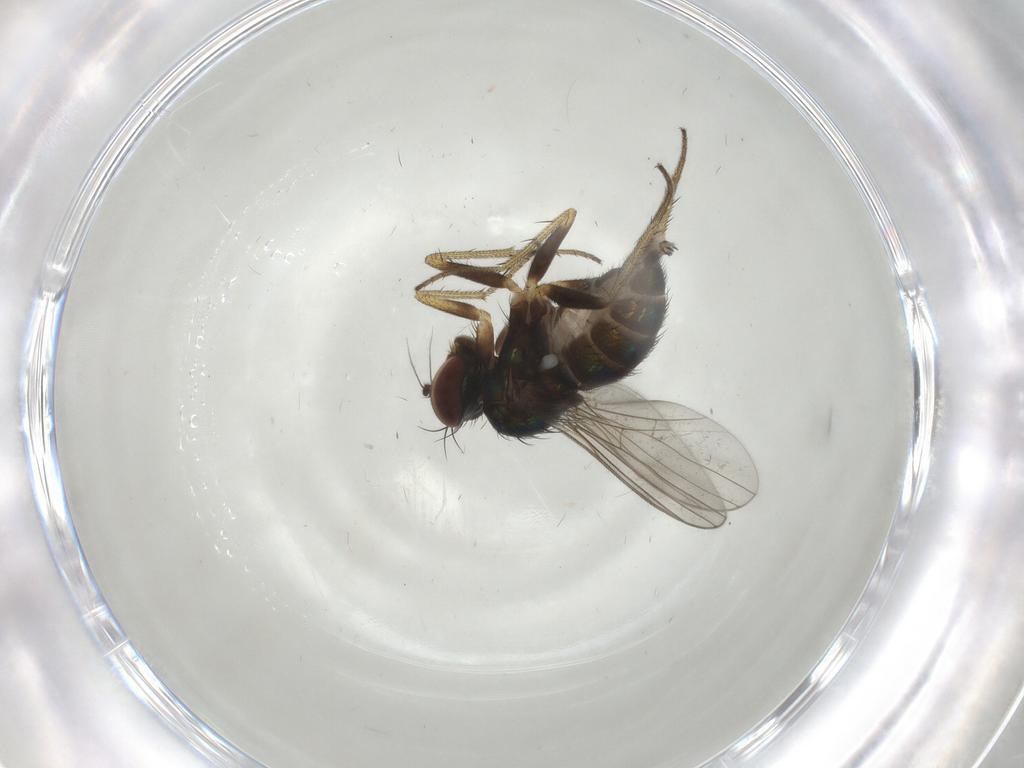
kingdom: Animalia
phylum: Arthropoda
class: Insecta
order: Diptera
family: Dolichopodidae
